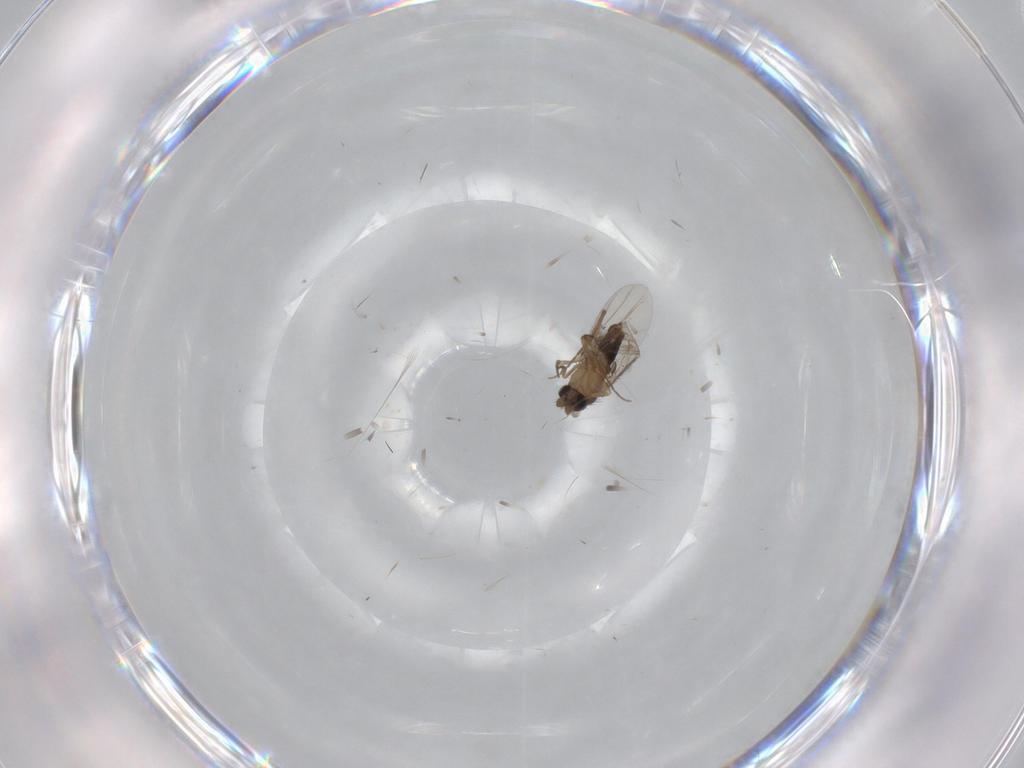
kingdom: Animalia
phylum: Arthropoda
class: Insecta
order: Diptera
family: Phoridae
